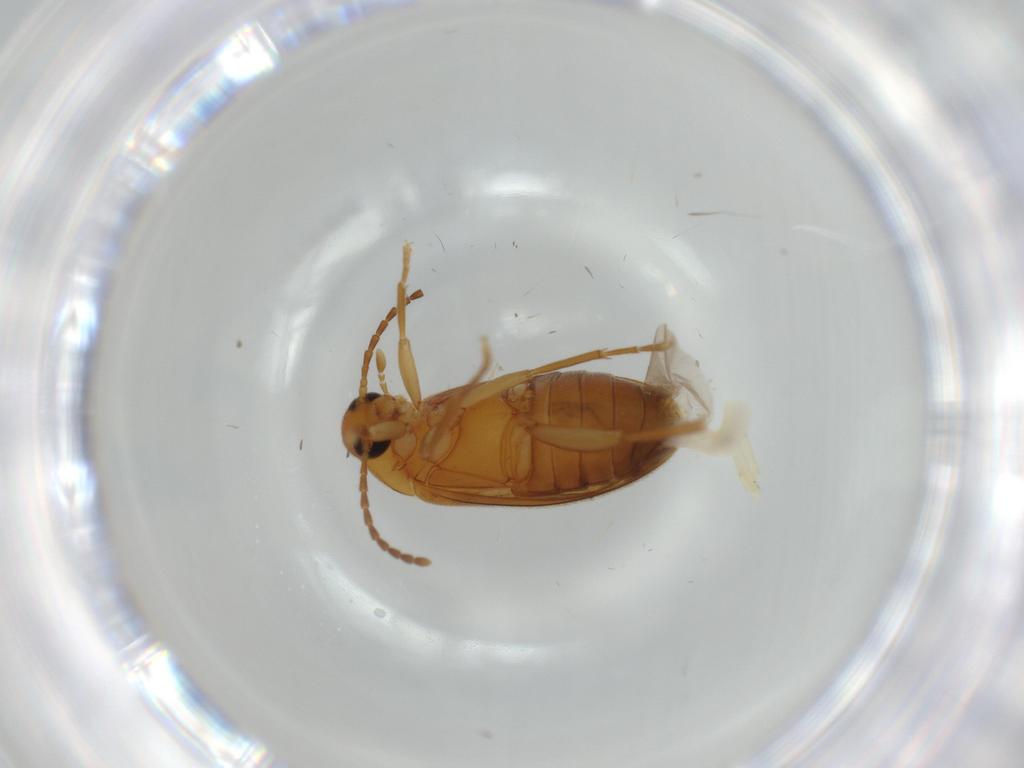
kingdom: Animalia
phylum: Arthropoda
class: Insecta
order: Coleoptera
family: Scraptiidae
